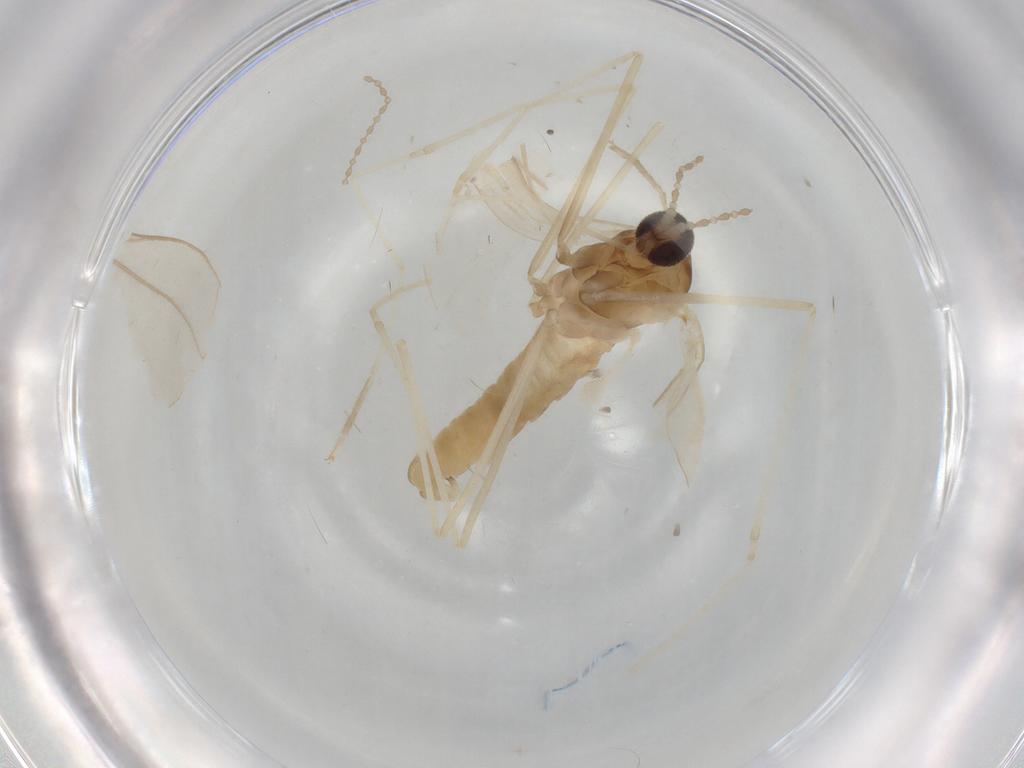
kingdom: Animalia
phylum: Arthropoda
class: Insecta
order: Diptera
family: Cecidomyiidae
